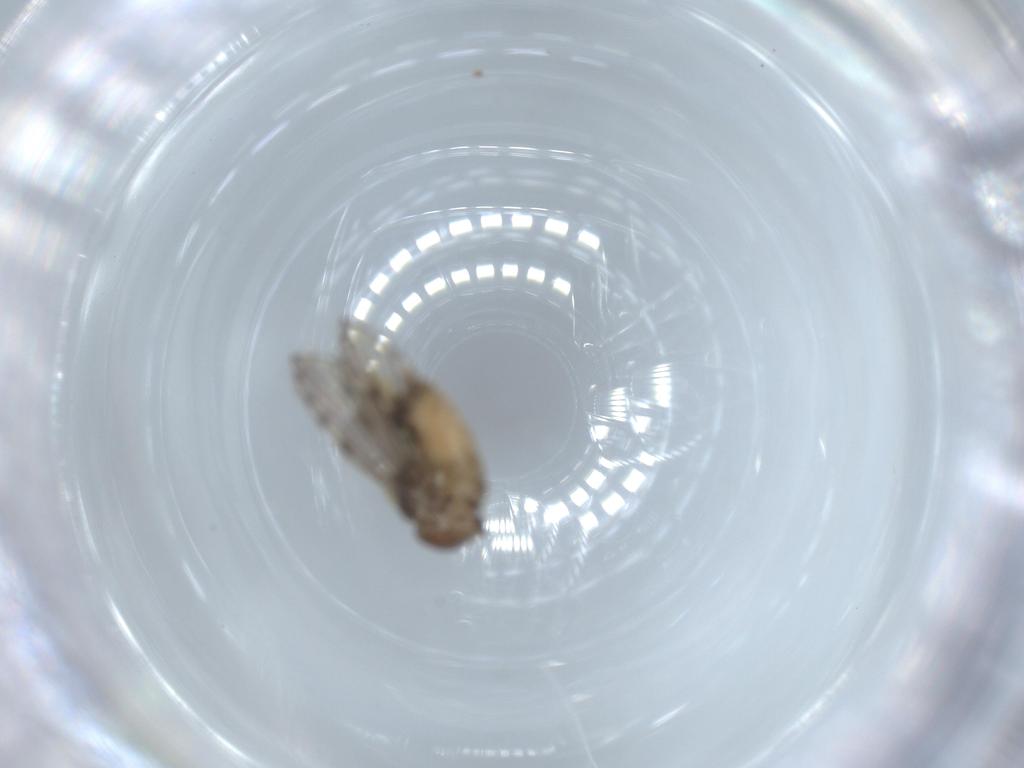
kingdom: Animalia
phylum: Arthropoda
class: Insecta
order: Diptera
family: Psychodidae
